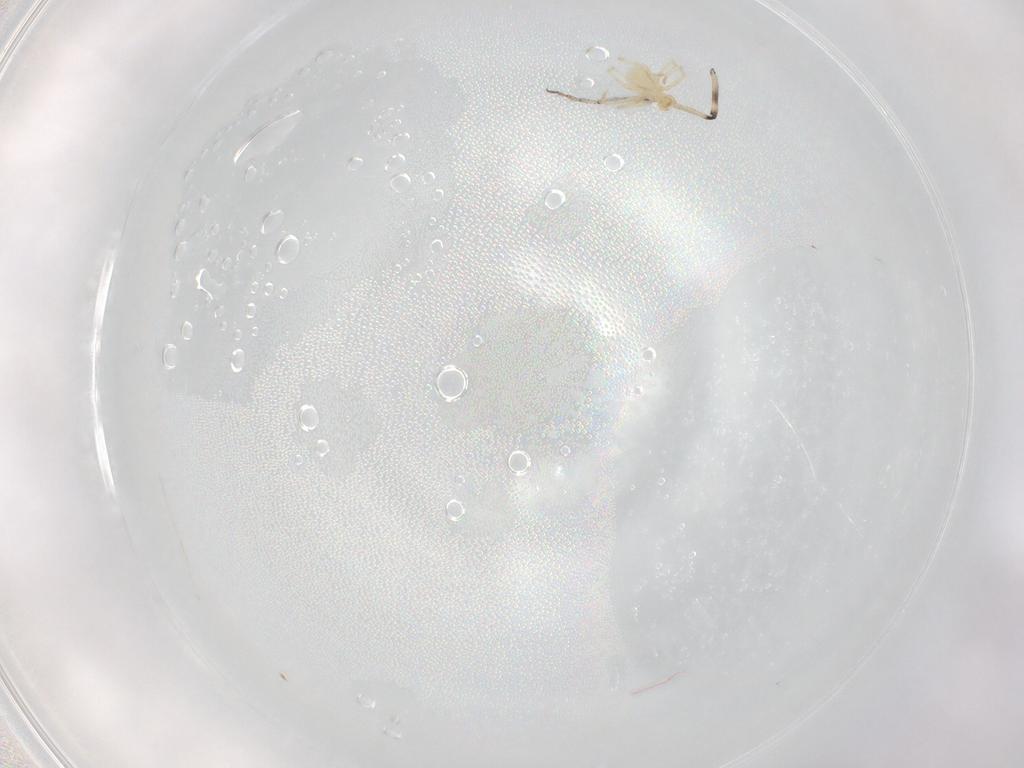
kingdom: Animalia
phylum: Arthropoda
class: Arachnida
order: Trombidiformes
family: Erythraeidae
